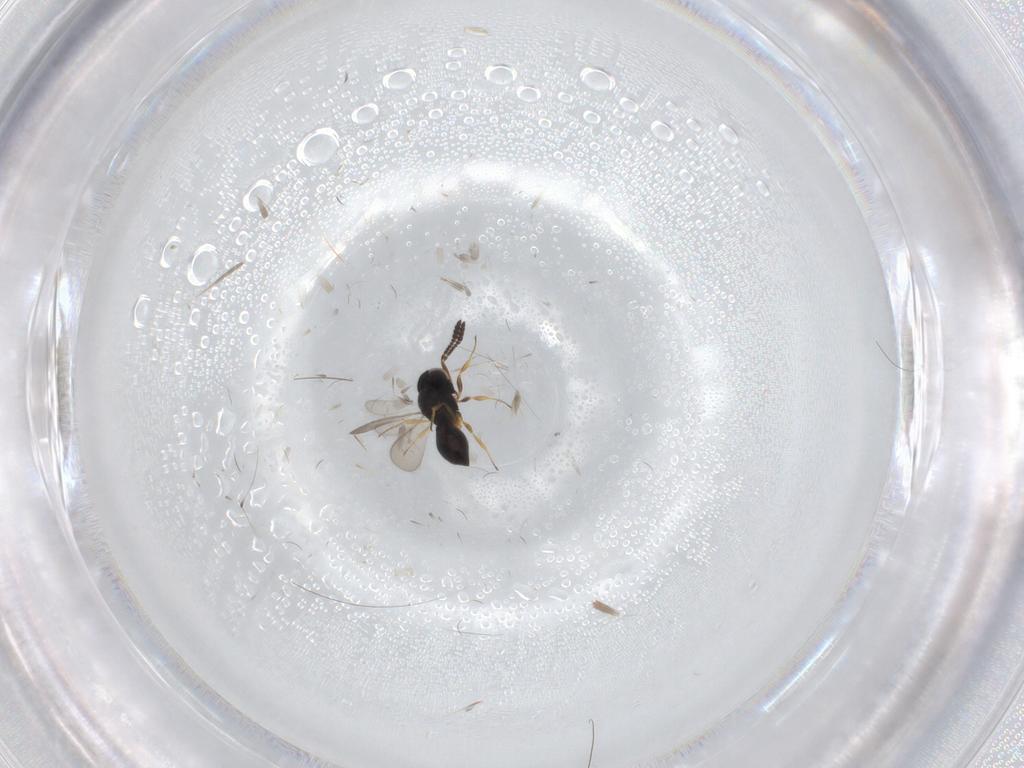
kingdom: Animalia
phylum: Arthropoda
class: Insecta
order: Hymenoptera
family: Scelionidae
